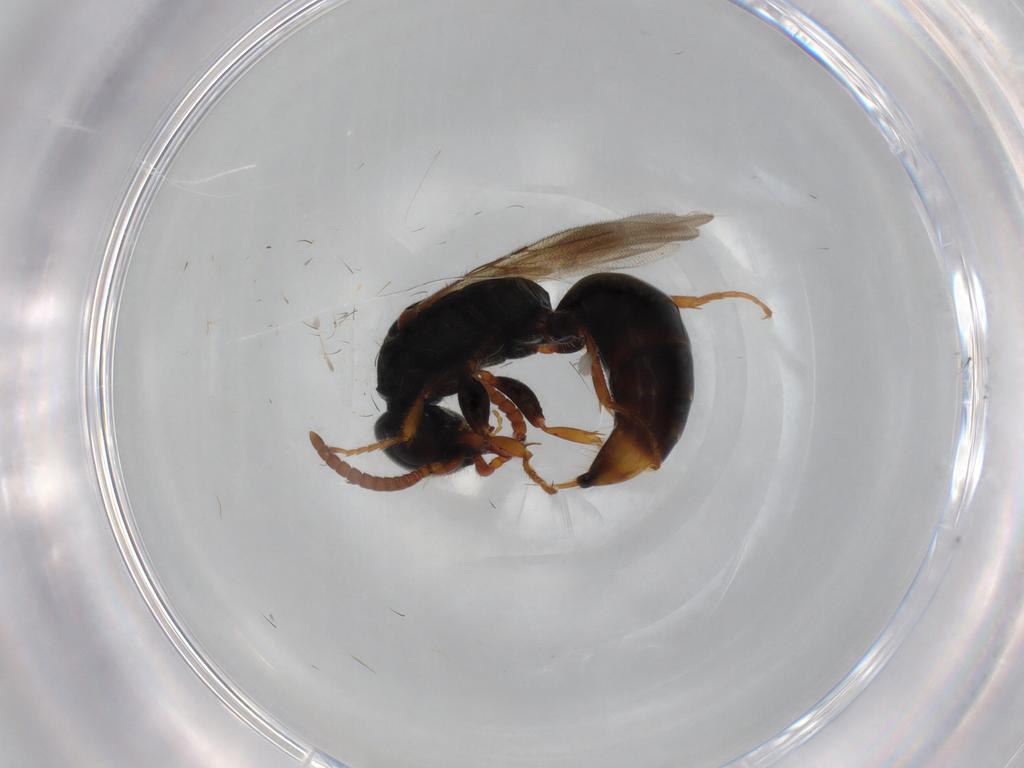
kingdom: Animalia
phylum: Arthropoda
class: Insecta
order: Hymenoptera
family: Bethylidae
